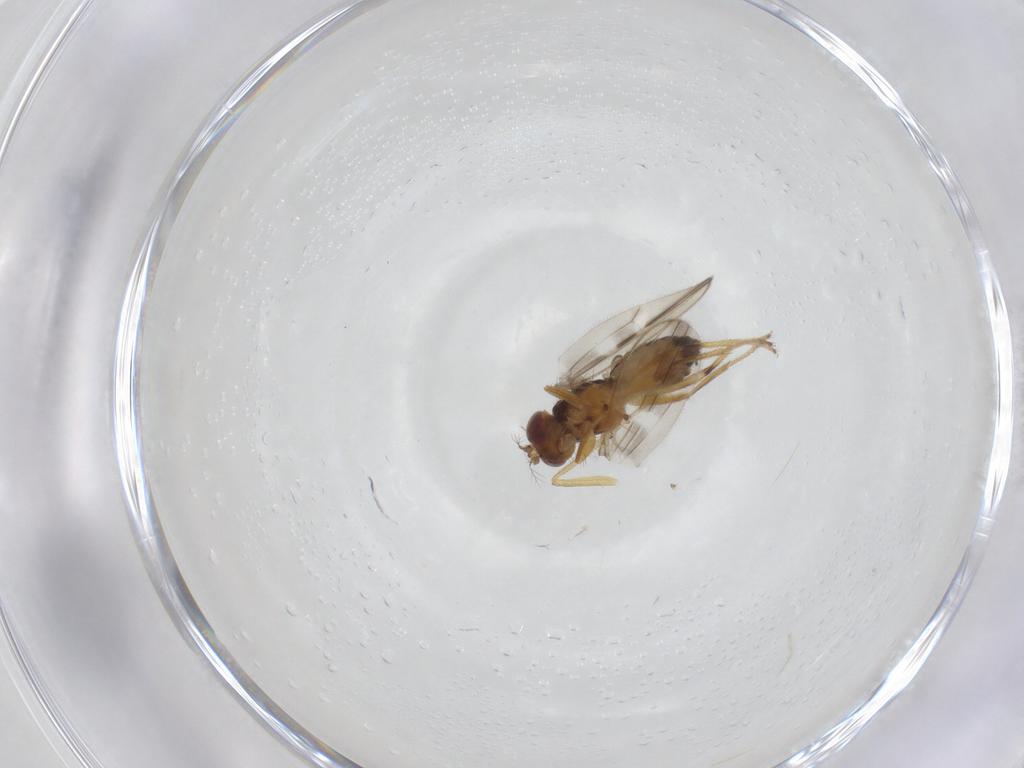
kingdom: Animalia
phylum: Arthropoda
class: Insecta
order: Diptera
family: Periscelididae
